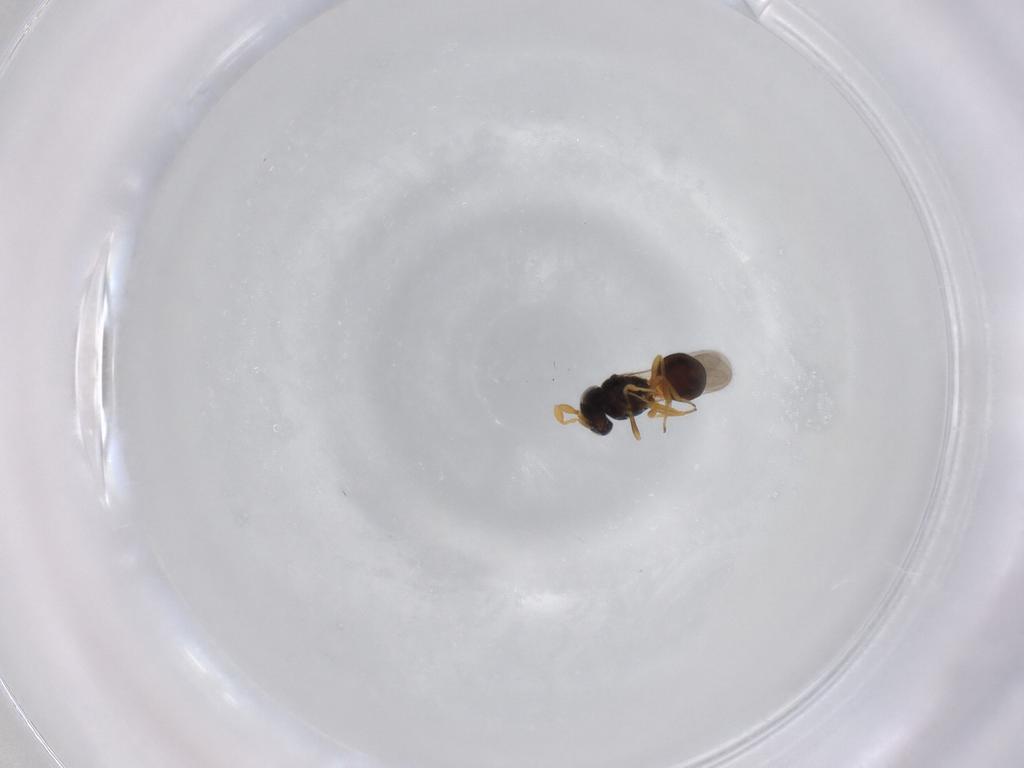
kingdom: Animalia
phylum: Arthropoda
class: Insecta
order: Hymenoptera
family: Scelionidae
